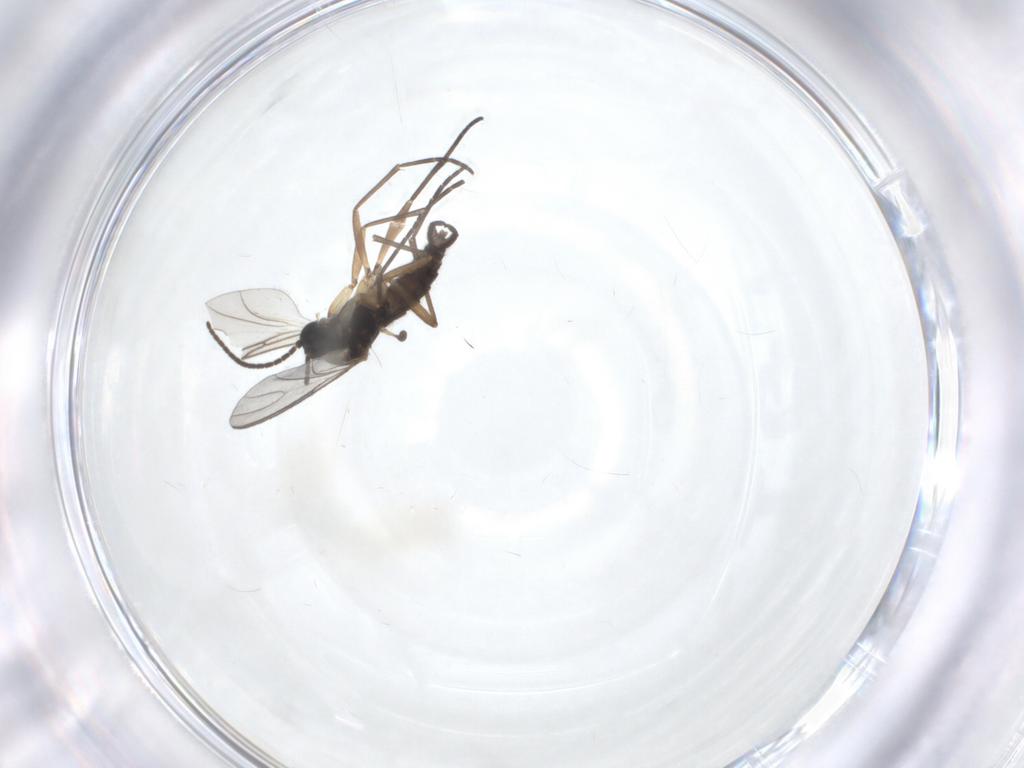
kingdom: Animalia
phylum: Arthropoda
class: Insecta
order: Diptera
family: Sciaridae
